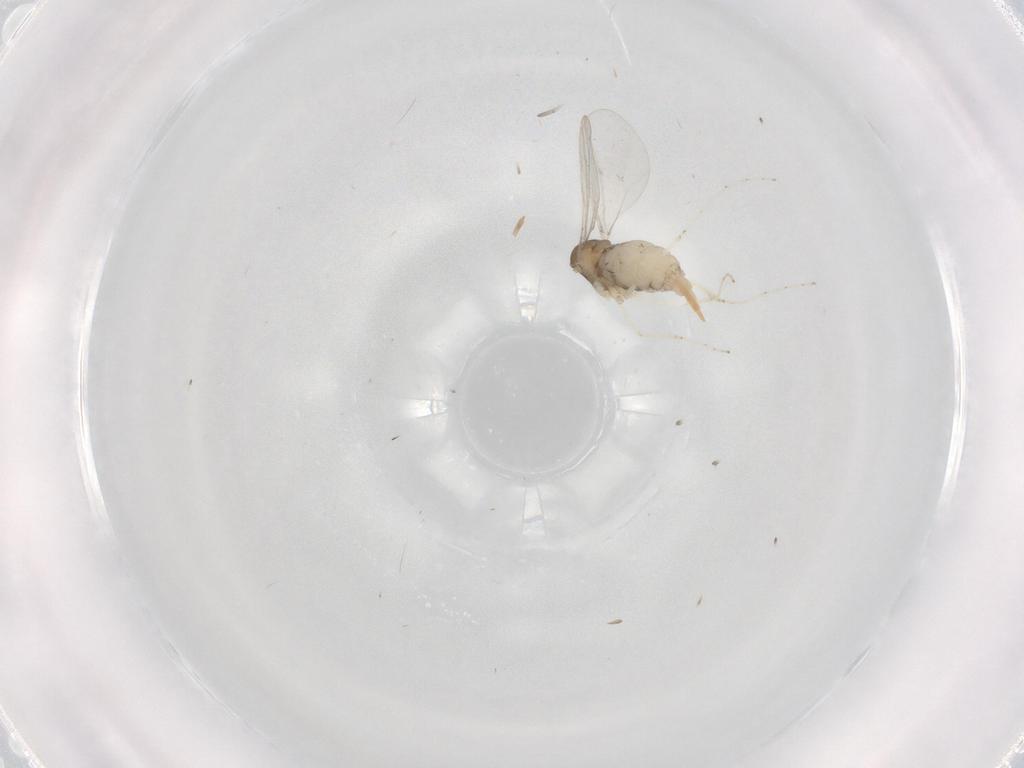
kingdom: Animalia
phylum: Arthropoda
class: Insecta
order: Diptera
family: Cecidomyiidae
